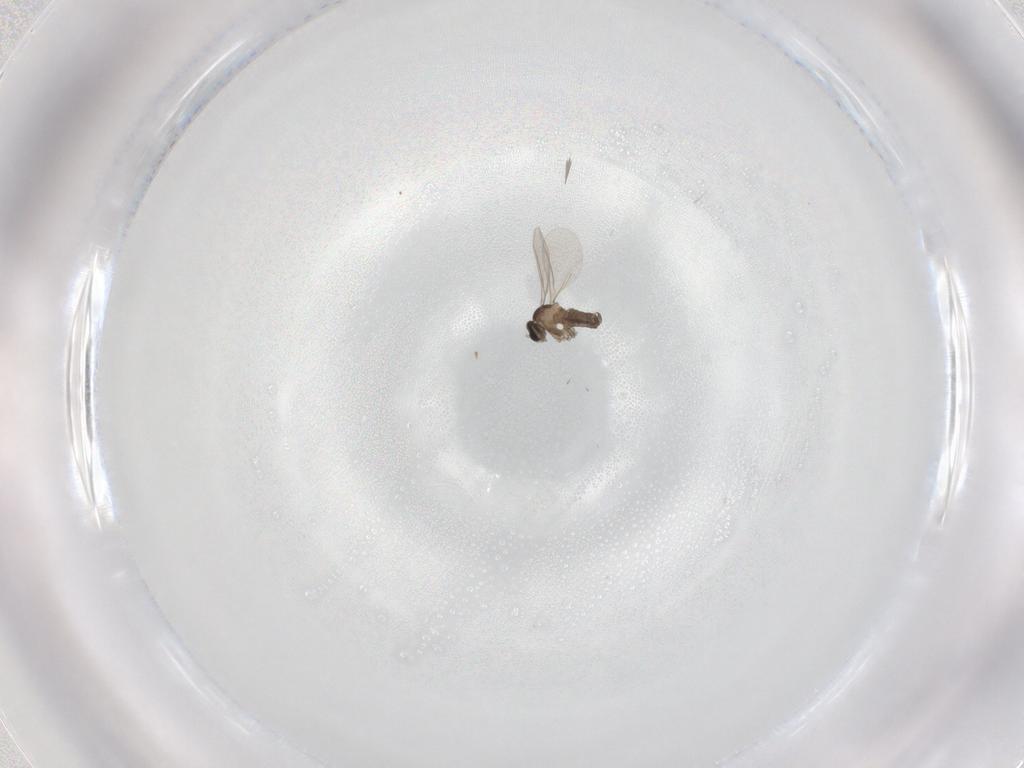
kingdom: Animalia
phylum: Arthropoda
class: Insecta
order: Diptera
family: Cecidomyiidae
